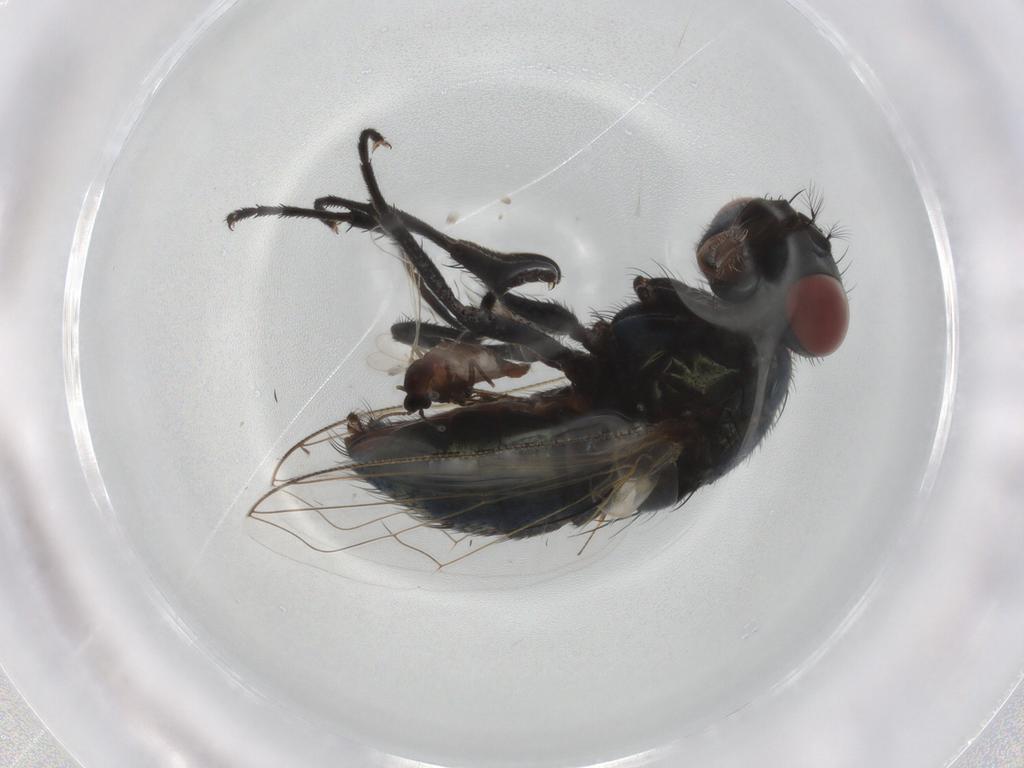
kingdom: Animalia
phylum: Arthropoda
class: Insecta
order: Diptera
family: Cecidomyiidae
